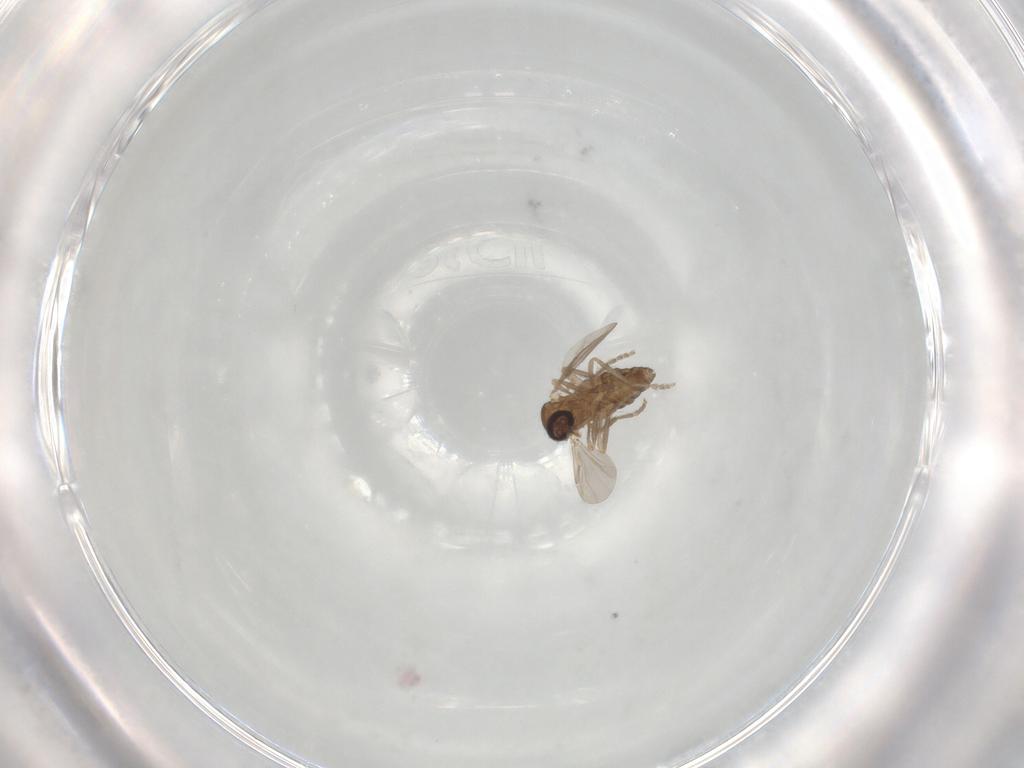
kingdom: Animalia
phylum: Arthropoda
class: Insecta
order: Diptera
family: Ceratopogonidae
